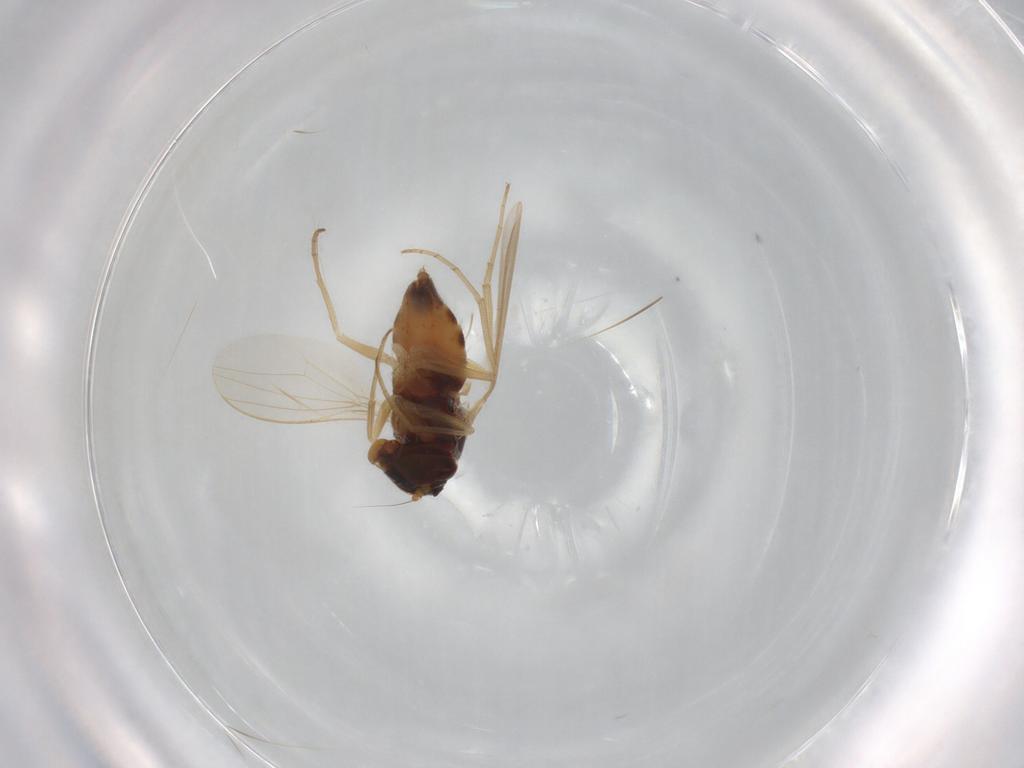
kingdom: Animalia
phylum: Arthropoda
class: Insecta
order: Diptera
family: Ceratopogonidae
